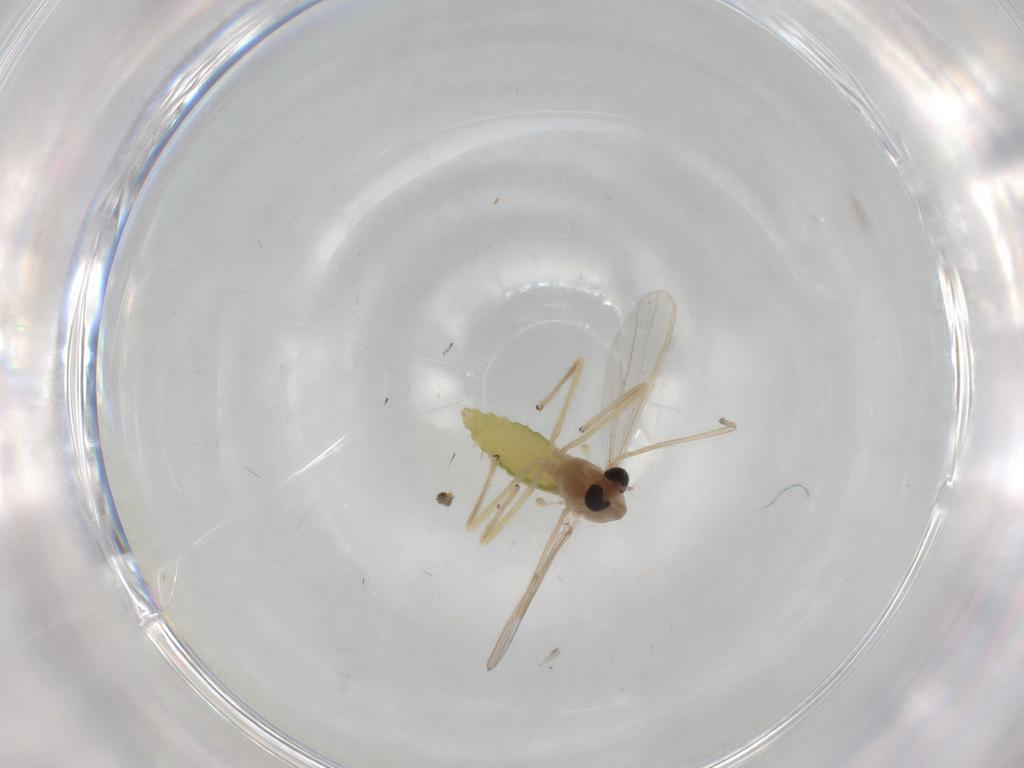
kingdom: Animalia
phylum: Arthropoda
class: Insecta
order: Diptera
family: Chironomidae
